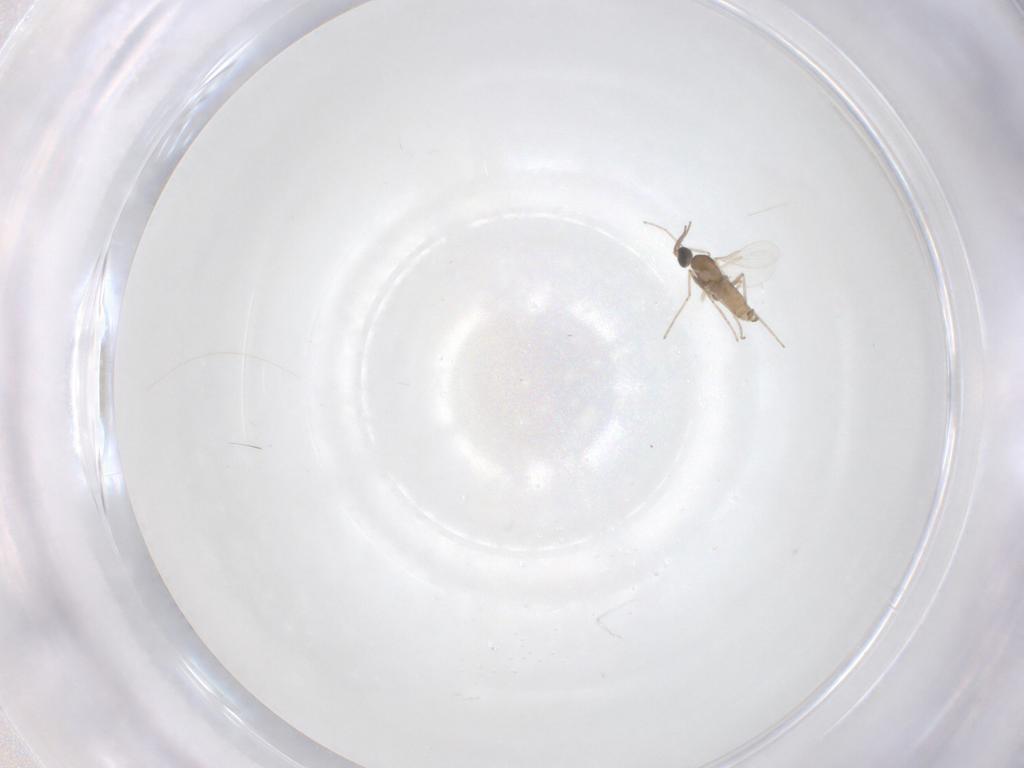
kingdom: Animalia
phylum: Arthropoda
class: Insecta
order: Diptera
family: Cecidomyiidae
